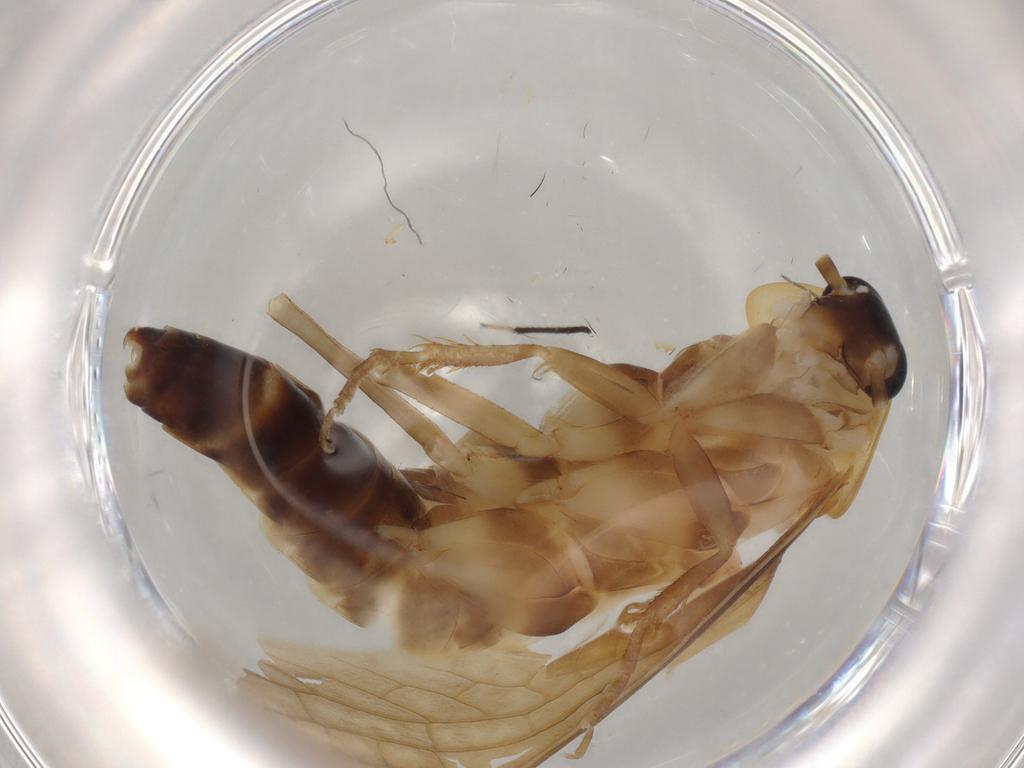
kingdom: Animalia
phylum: Arthropoda
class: Insecta
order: Blattodea
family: Blaberidae
